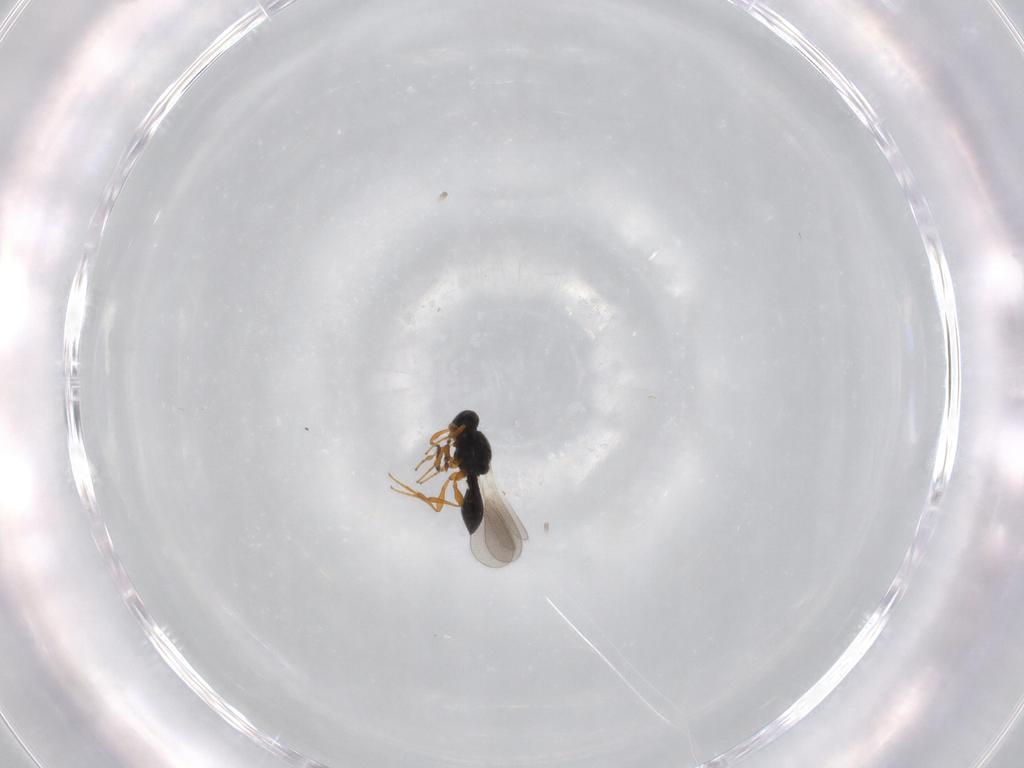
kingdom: Animalia
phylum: Arthropoda
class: Insecta
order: Hymenoptera
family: Platygastridae
